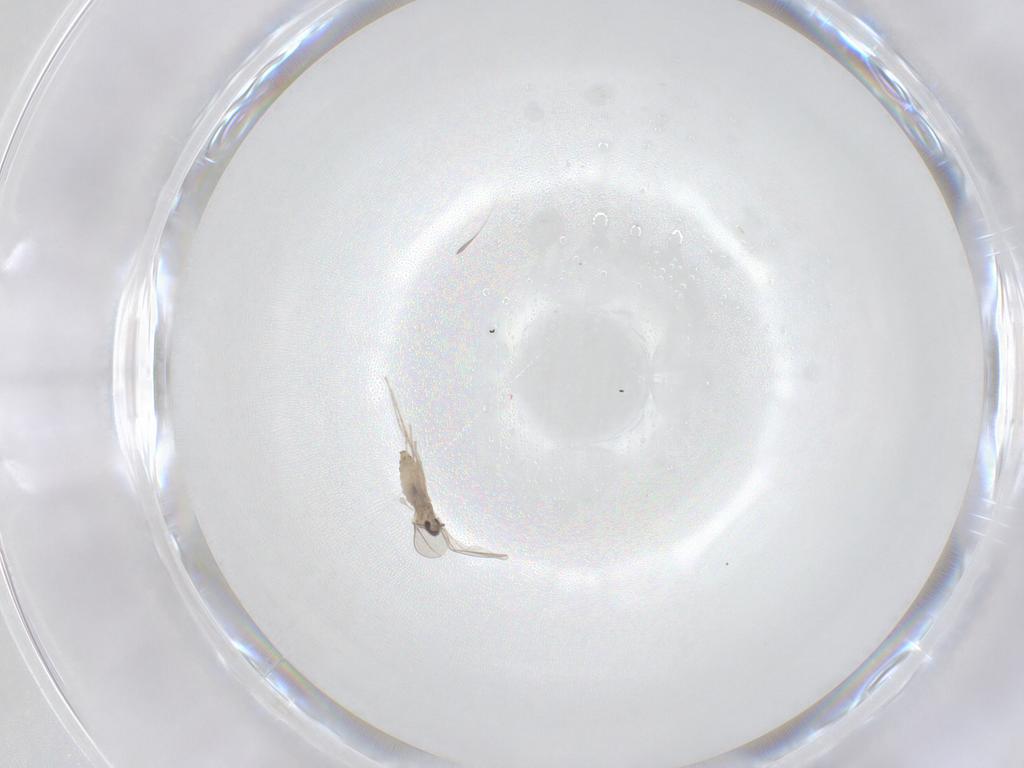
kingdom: Animalia
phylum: Arthropoda
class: Insecta
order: Diptera
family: Cecidomyiidae
